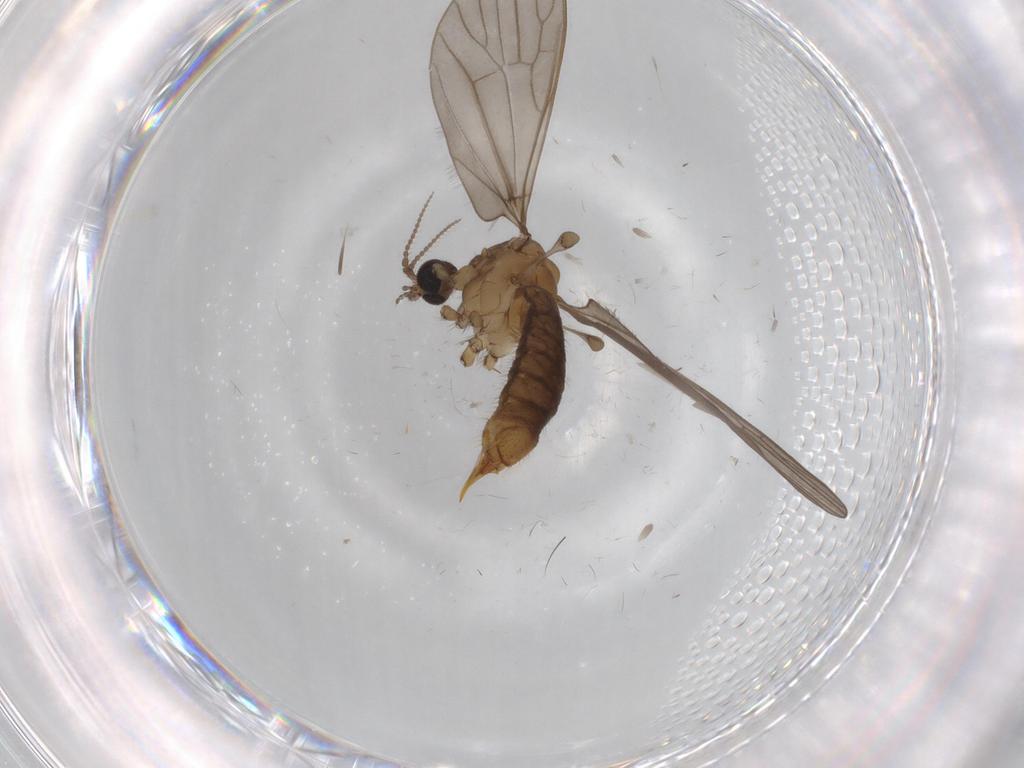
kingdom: Animalia
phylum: Arthropoda
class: Insecta
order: Diptera
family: Limoniidae
